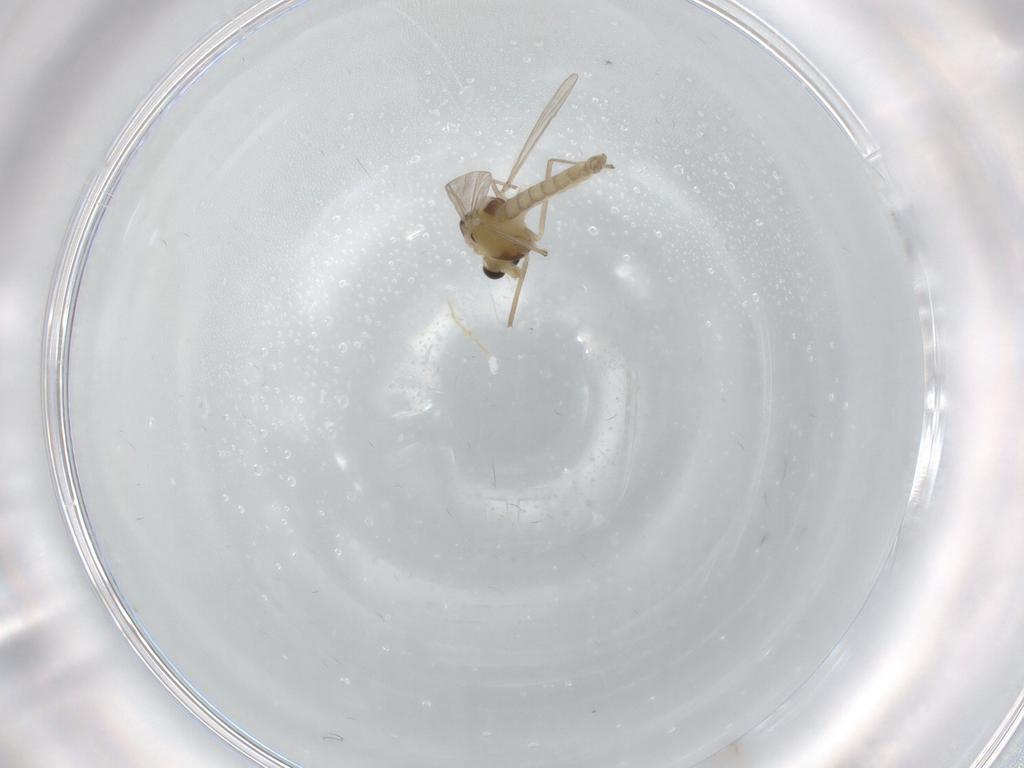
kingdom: Animalia
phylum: Arthropoda
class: Insecta
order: Diptera
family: Chironomidae
